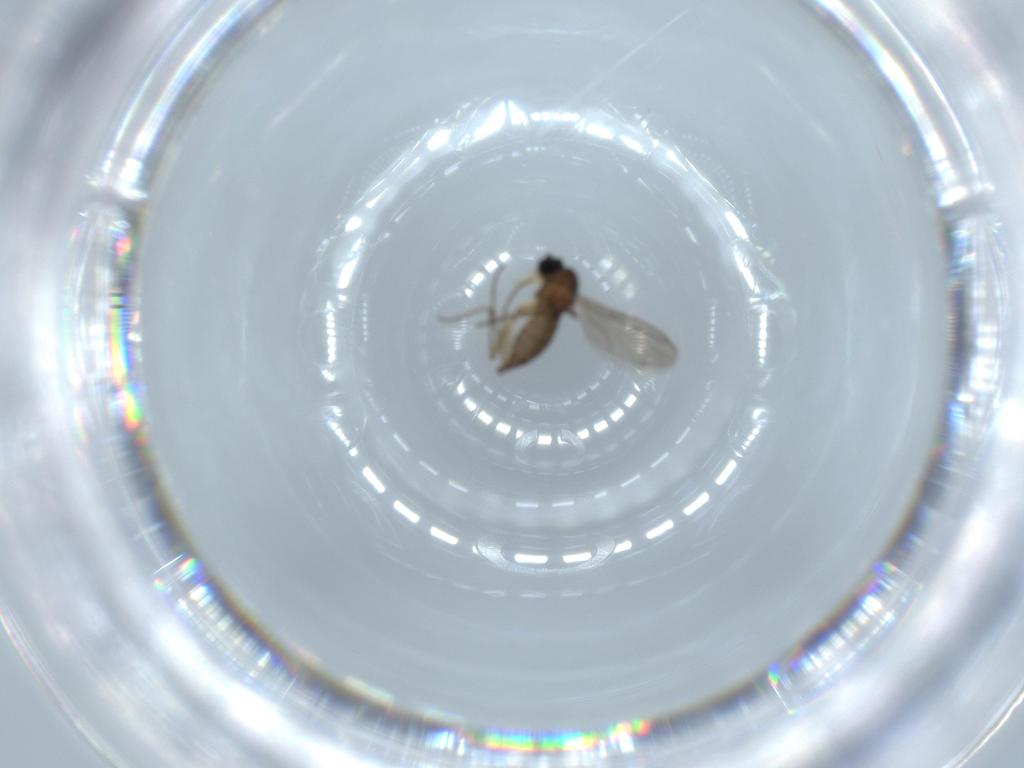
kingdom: Animalia
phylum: Arthropoda
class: Insecta
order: Diptera
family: Sciaridae
